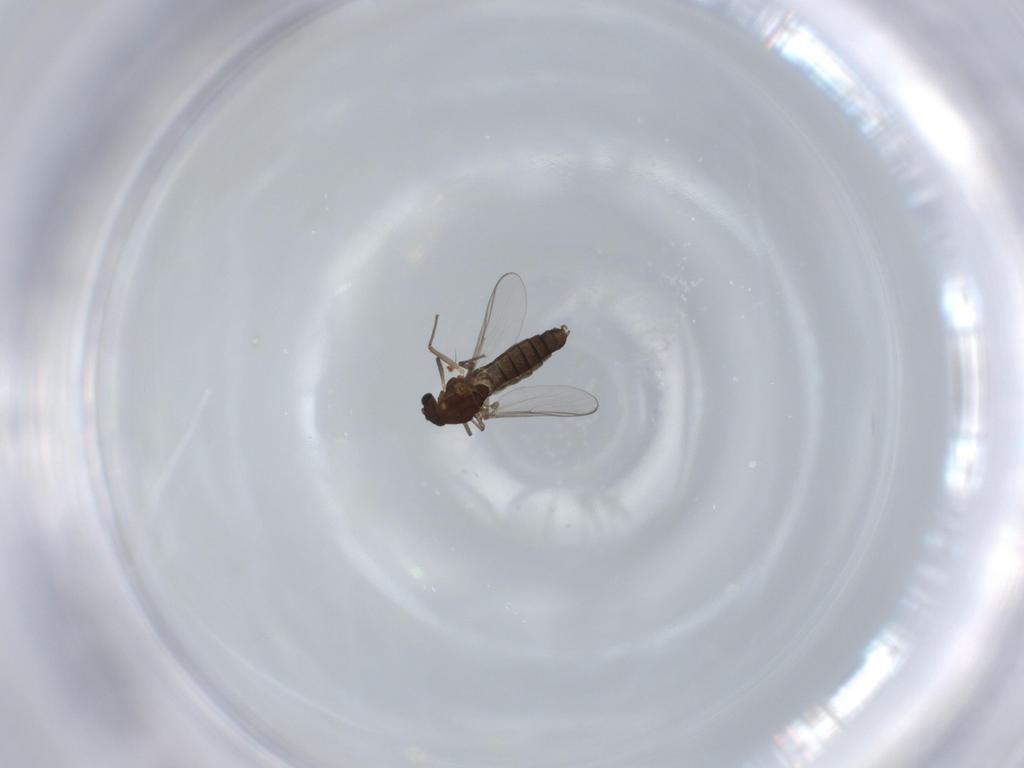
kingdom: Animalia
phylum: Arthropoda
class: Insecta
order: Diptera
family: Chironomidae
